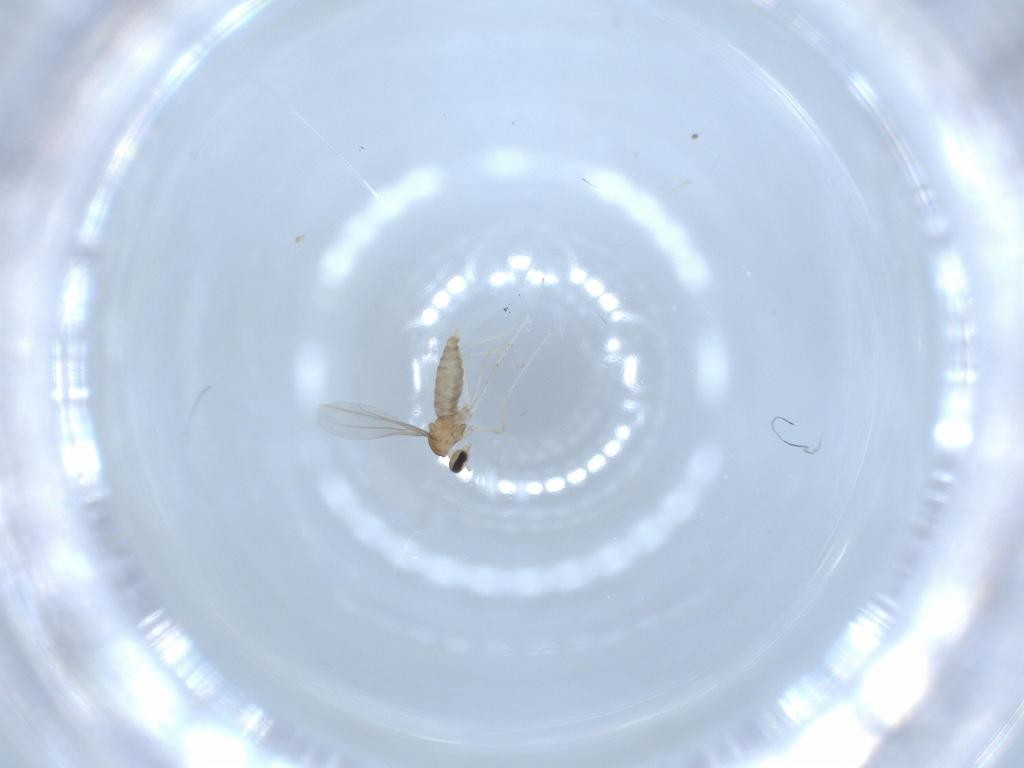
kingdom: Animalia
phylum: Arthropoda
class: Insecta
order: Diptera
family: Cecidomyiidae
